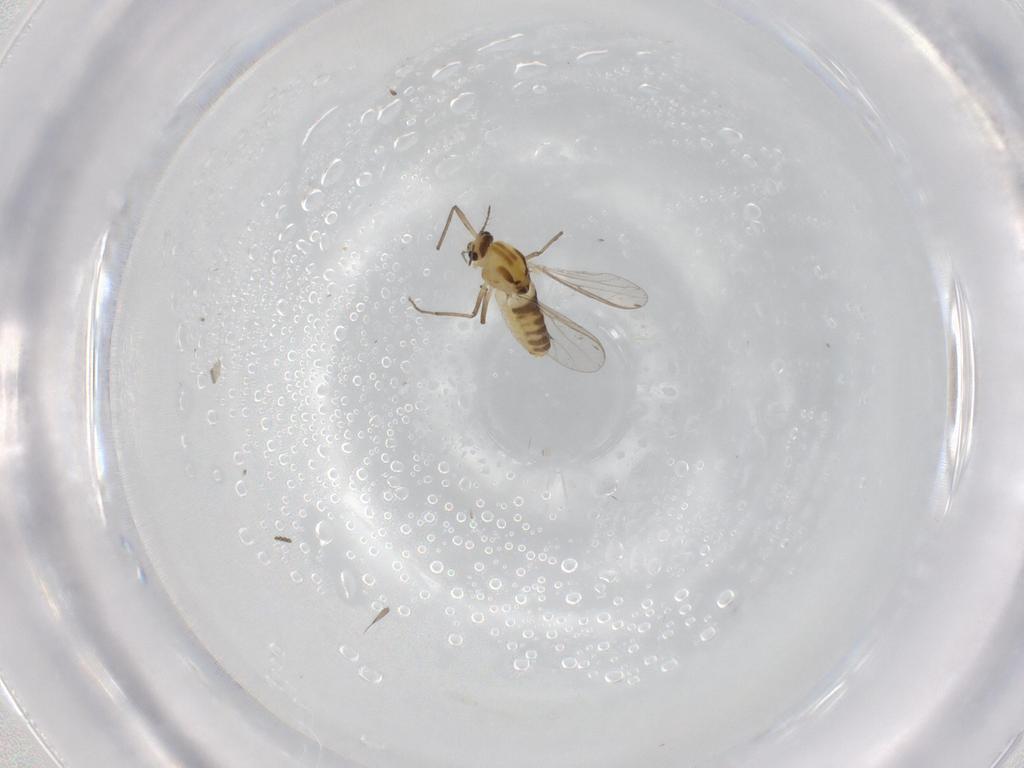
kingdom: Animalia
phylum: Arthropoda
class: Insecta
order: Diptera
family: Chironomidae
